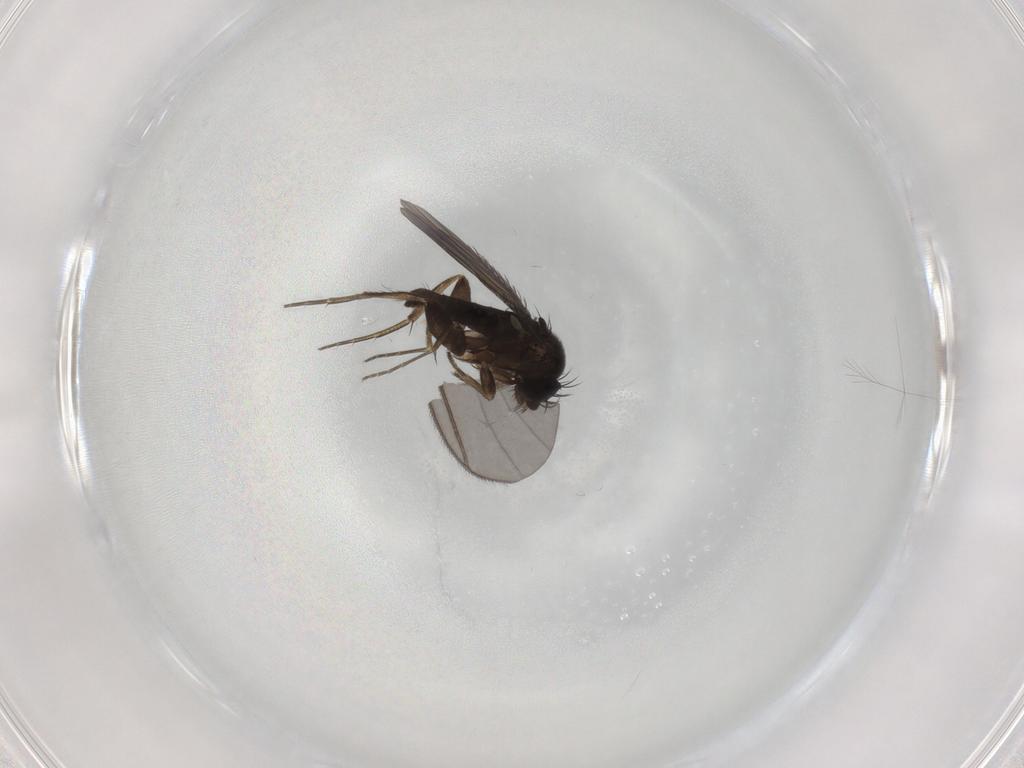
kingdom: Animalia
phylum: Arthropoda
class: Insecta
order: Diptera
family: Phoridae
